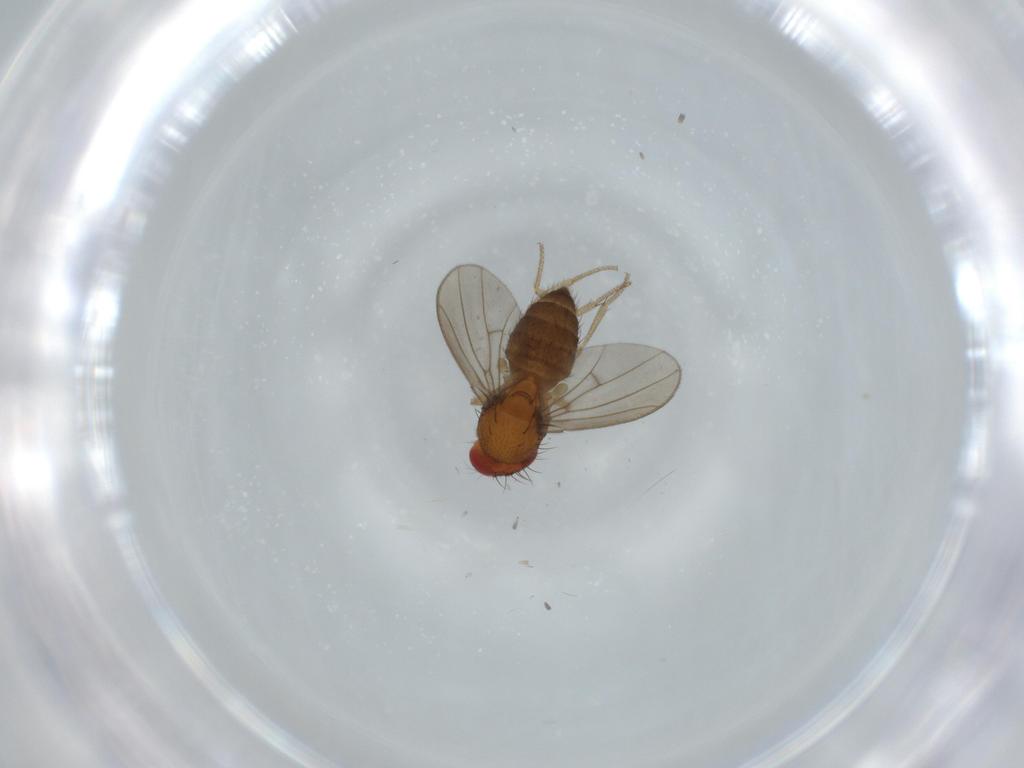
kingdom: Animalia
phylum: Arthropoda
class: Insecta
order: Diptera
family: Drosophilidae
